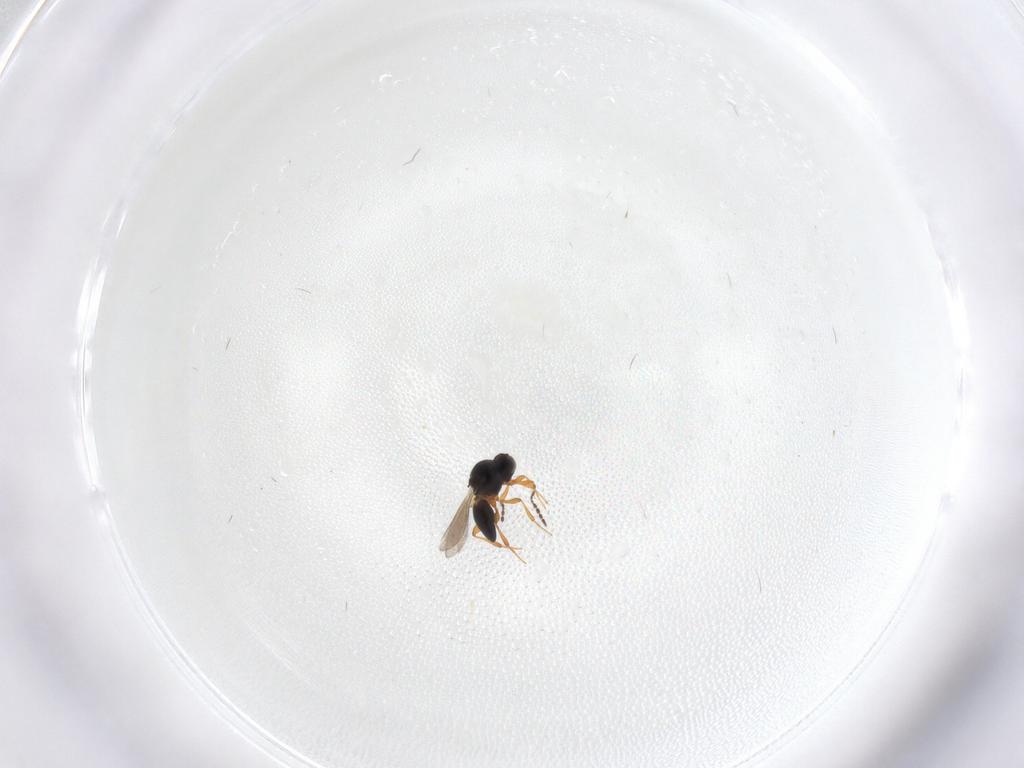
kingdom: Animalia
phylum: Arthropoda
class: Insecta
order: Hymenoptera
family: Platygastridae
